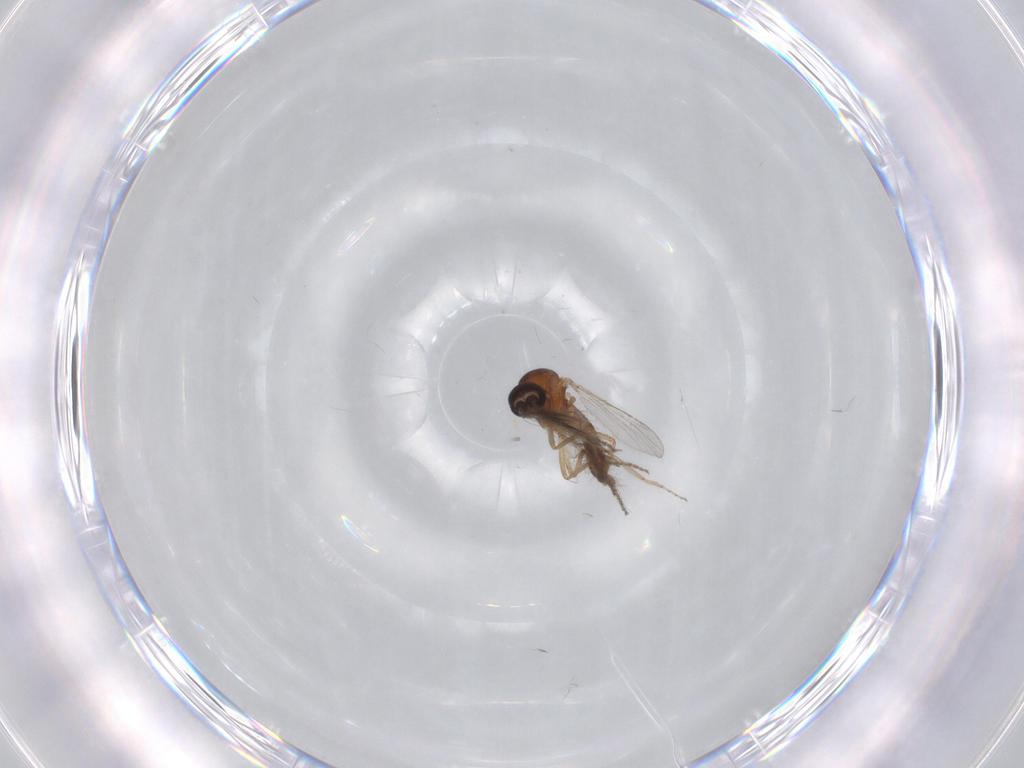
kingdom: Animalia
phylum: Arthropoda
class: Insecta
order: Diptera
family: Ceratopogonidae
